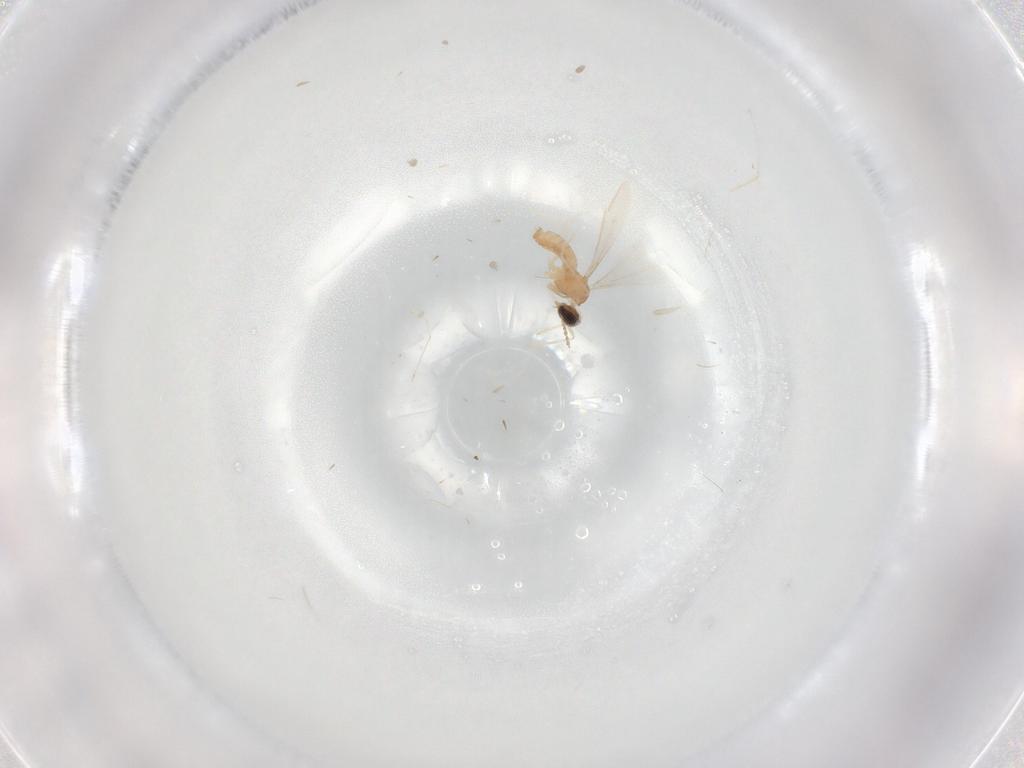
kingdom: Animalia
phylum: Arthropoda
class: Insecta
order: Diptera
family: Cecidomyiidae
